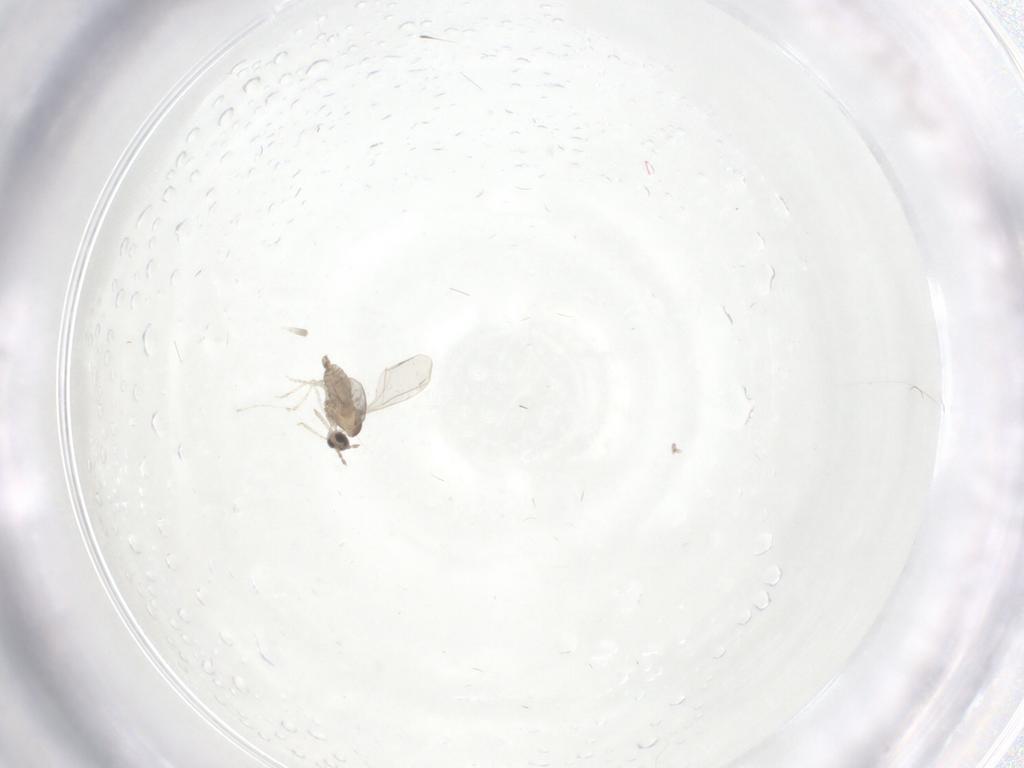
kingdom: Animalia
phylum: Arthropoda
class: Insecta
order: Diptera
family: Cecidomyiidae
